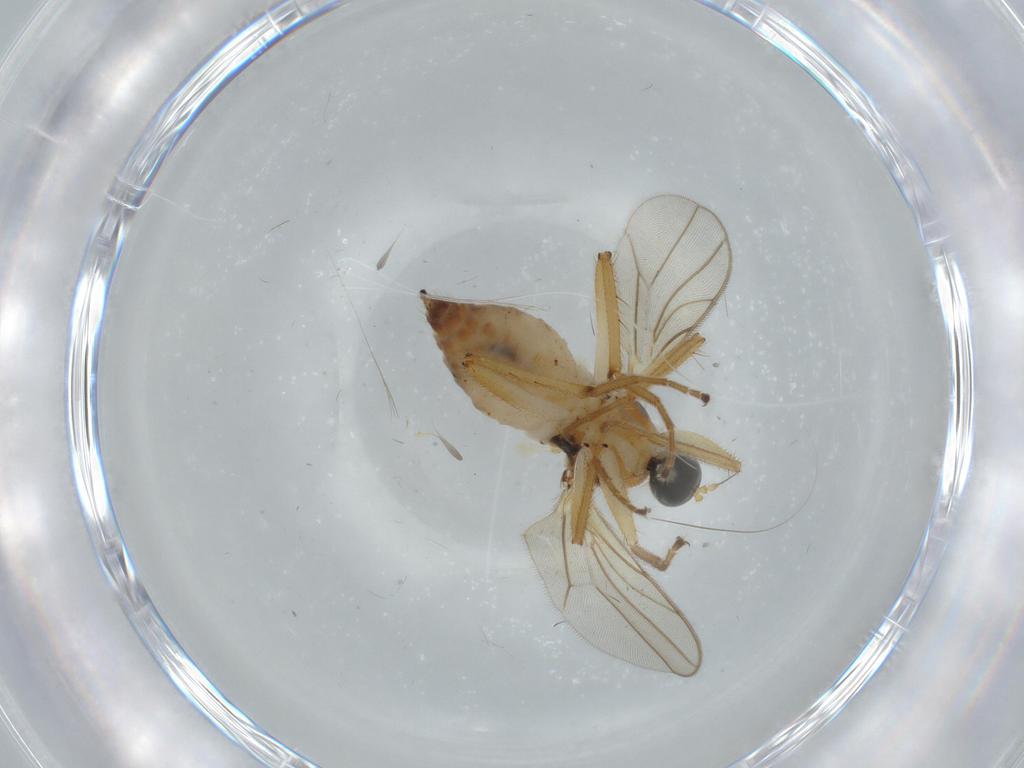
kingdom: Animalia
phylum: Arthropoda
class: Insecta
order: Diptera
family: Hybotidae
